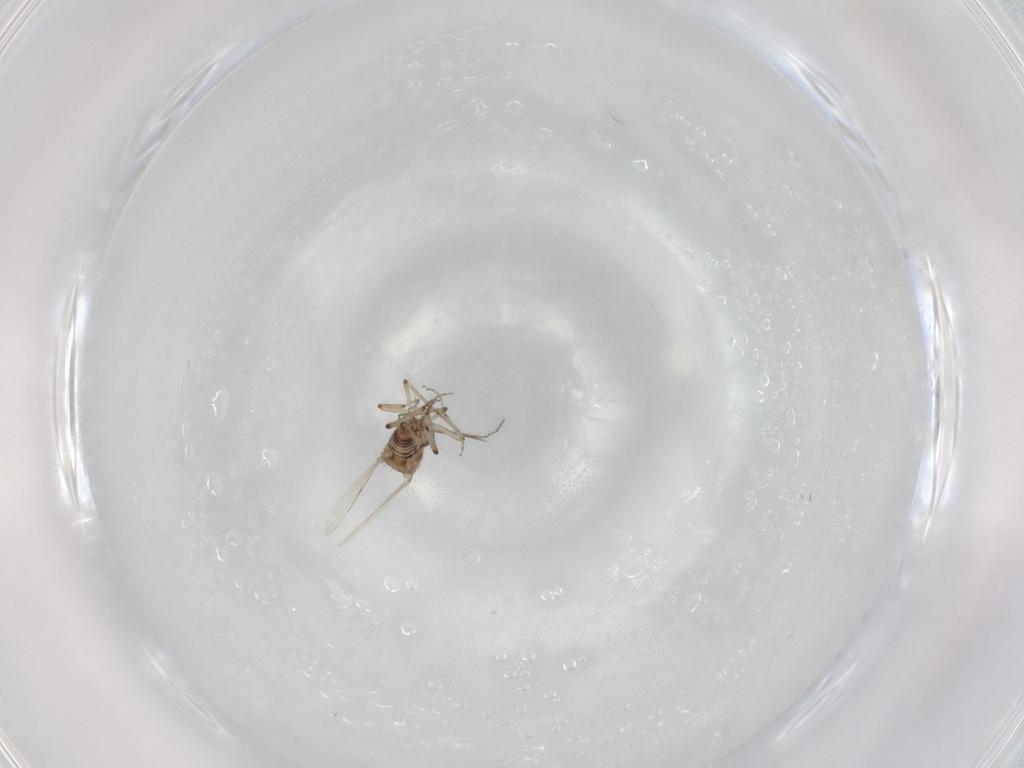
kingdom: Animalia
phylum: Arthropoda
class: Insecta
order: Diptera
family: Ceratopogonidae
